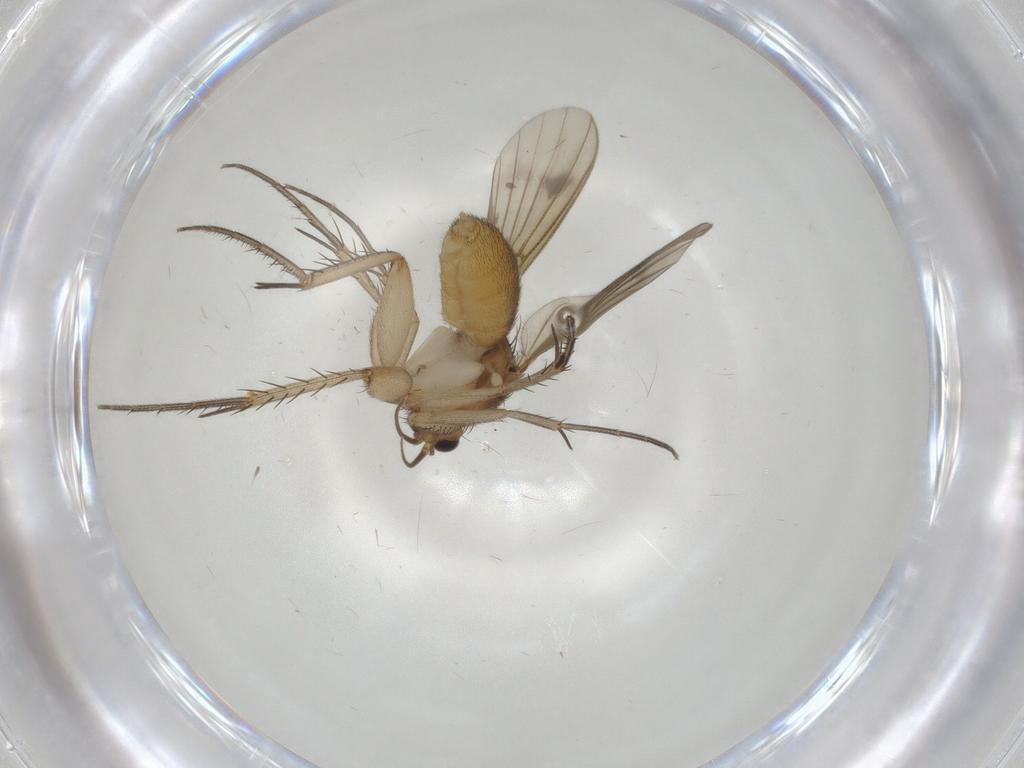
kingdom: Animalia
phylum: Arthropoda
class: Insecta
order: Diptera
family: Mycetophilidae
